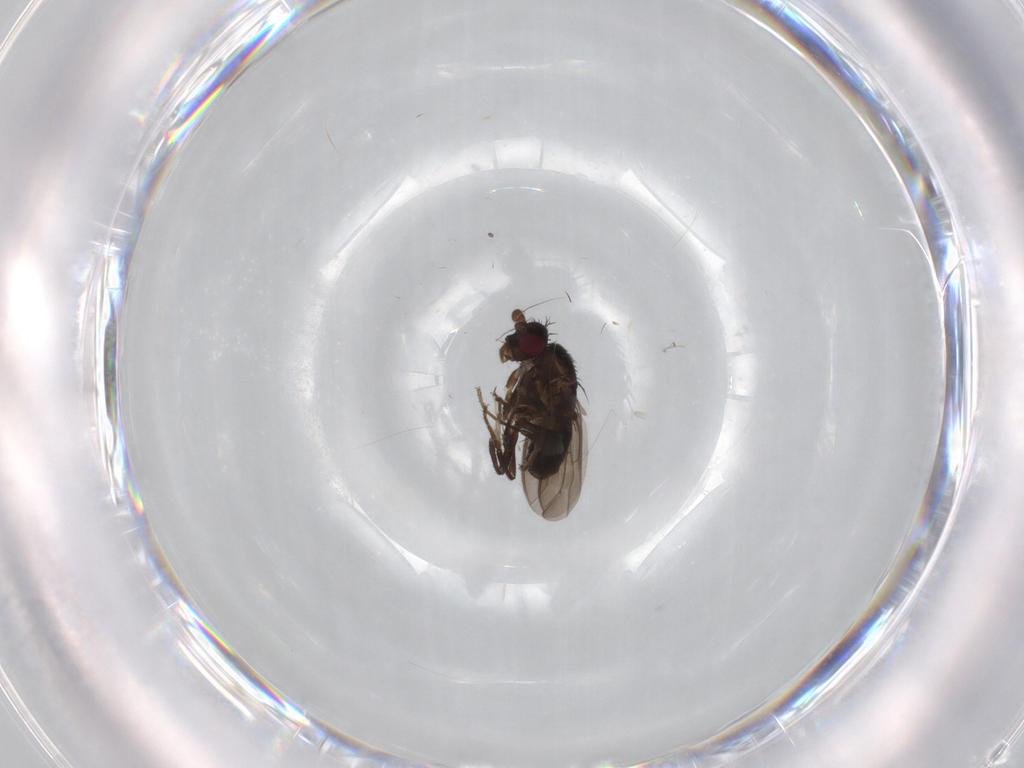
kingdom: Animalia
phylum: Arthropoda
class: Insecta
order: Diptera
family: Sphaeroceridae
